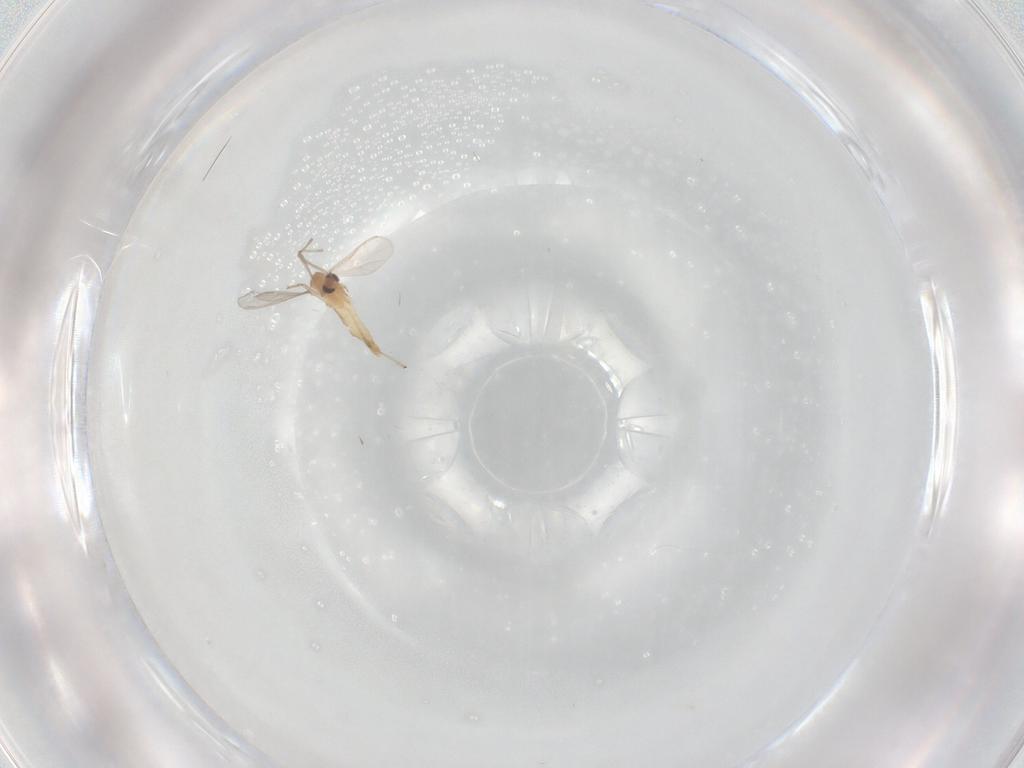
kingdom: Animalia
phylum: Arthropoda
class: Insecta
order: Diptera
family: Chironomidae
